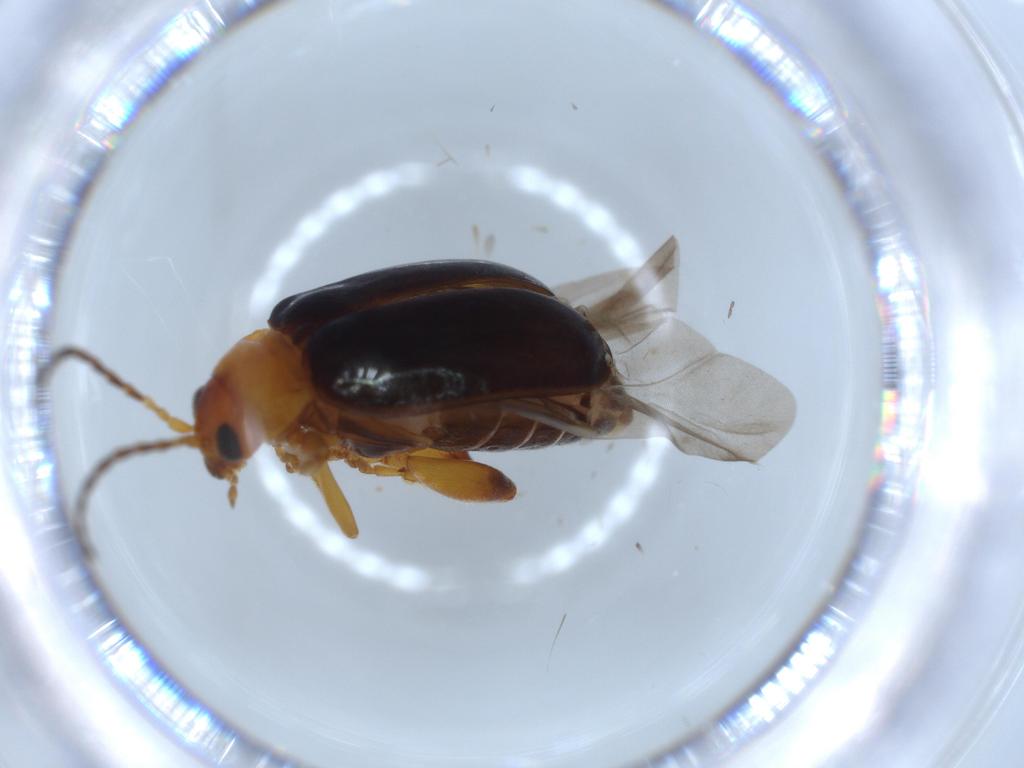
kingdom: Animalia
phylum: Arthropoda
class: Insecta
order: Coleoptera
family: Chrysomelidae
